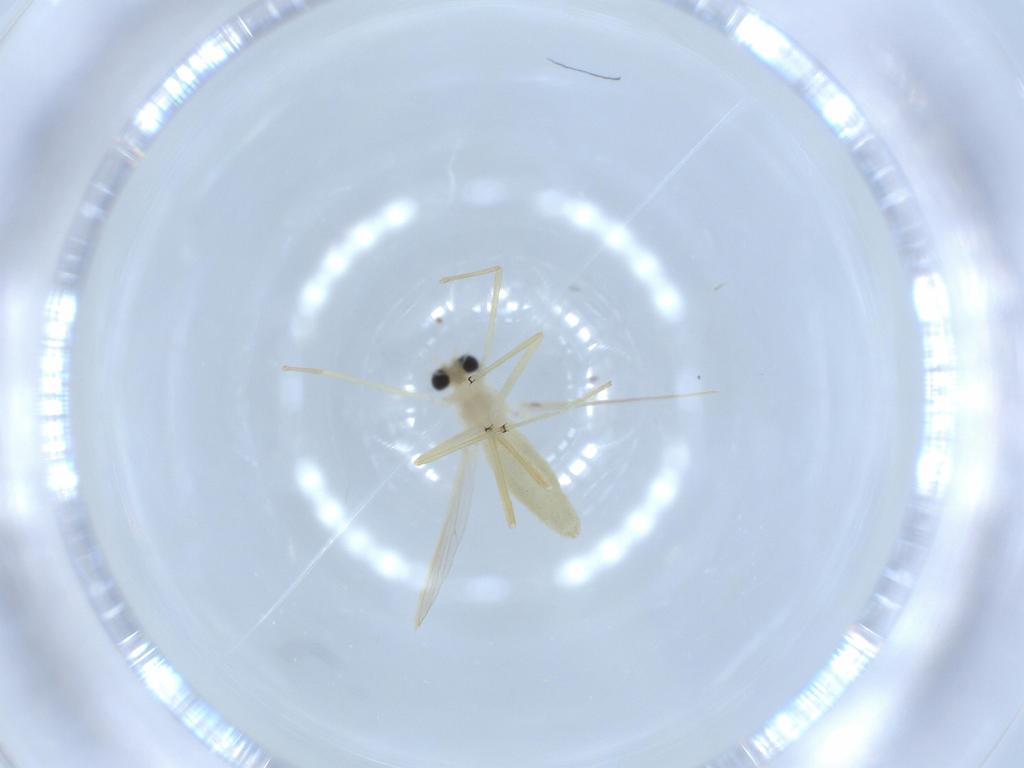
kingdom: Animalia
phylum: Arthropoda
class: Insecta
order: Diptera
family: Chironomidae
